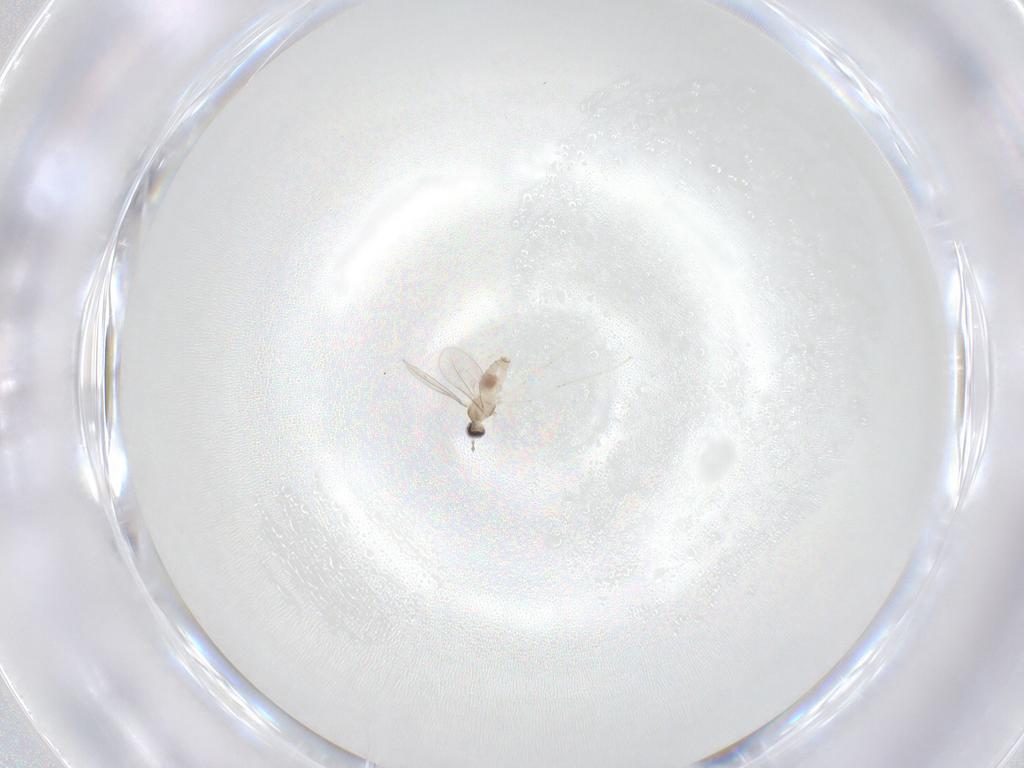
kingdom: Animalia
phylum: Arthropoda
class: Insecta
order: Diptera
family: Cecidomyiidae
